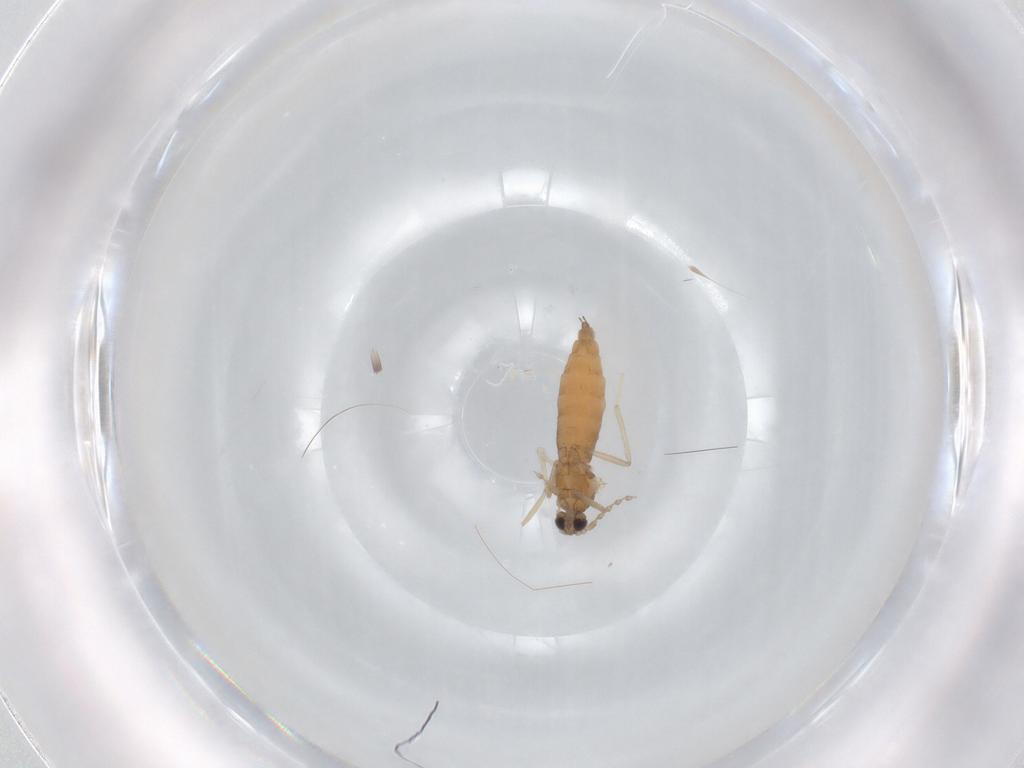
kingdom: Animalia
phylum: Arthropoda
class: Insecta
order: Diptera
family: Cecidomyiidae
